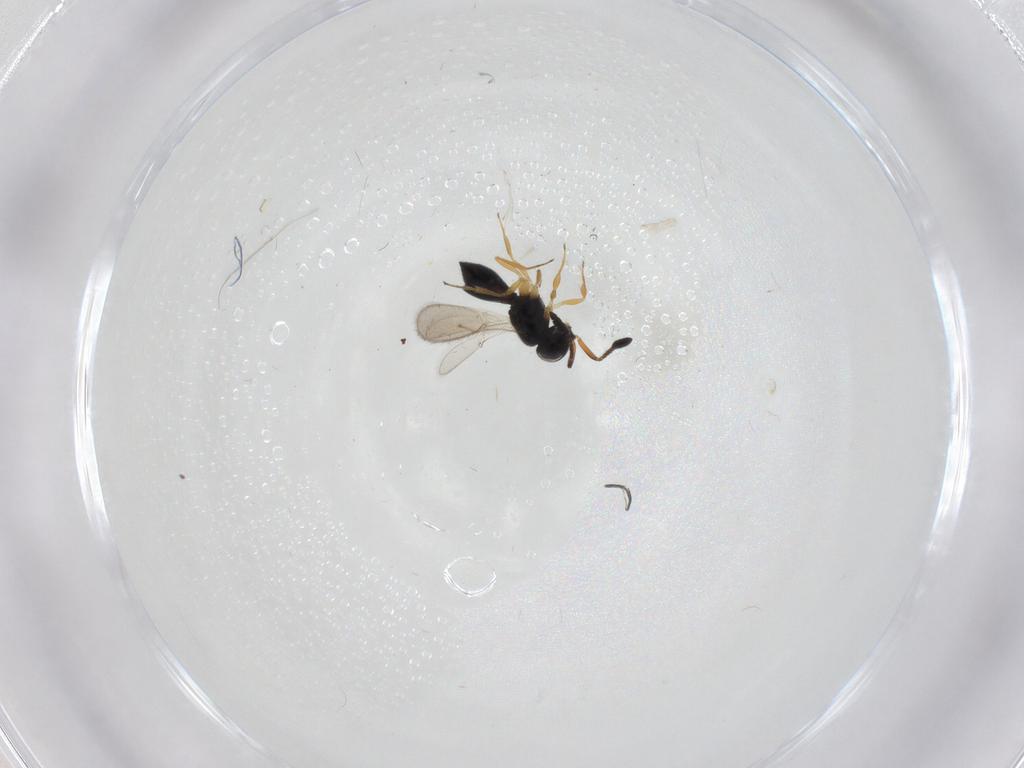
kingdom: Animalia
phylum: Arthropoda
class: Insecta
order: Hymenoptera
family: Scelionidae
